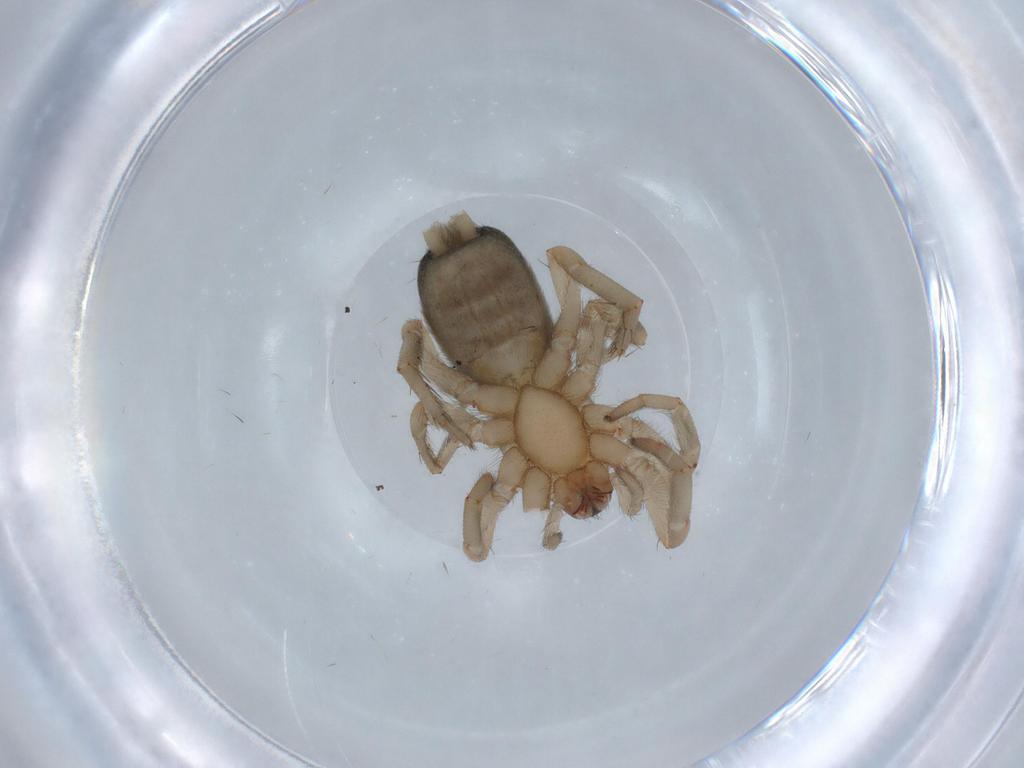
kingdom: Animalia
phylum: Arthropoda
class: Arachnida
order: Araneae
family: Gnaphosidae
